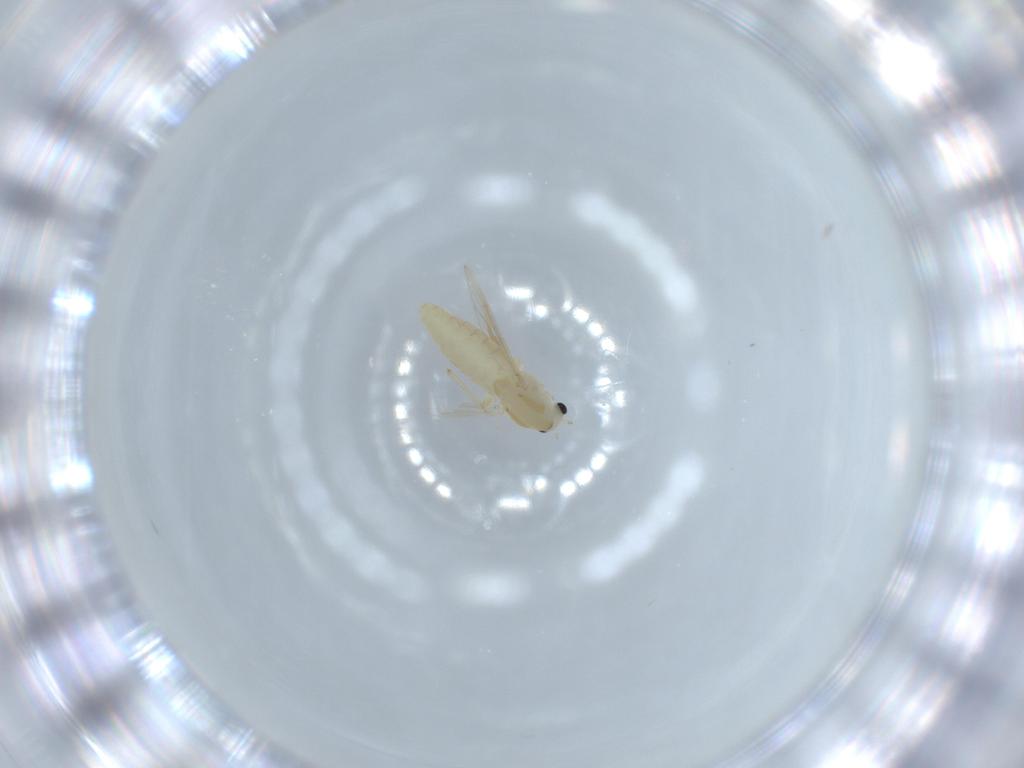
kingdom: Animalia
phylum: Arthropoda
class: Insecta
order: Diptera
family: Chironomidae
